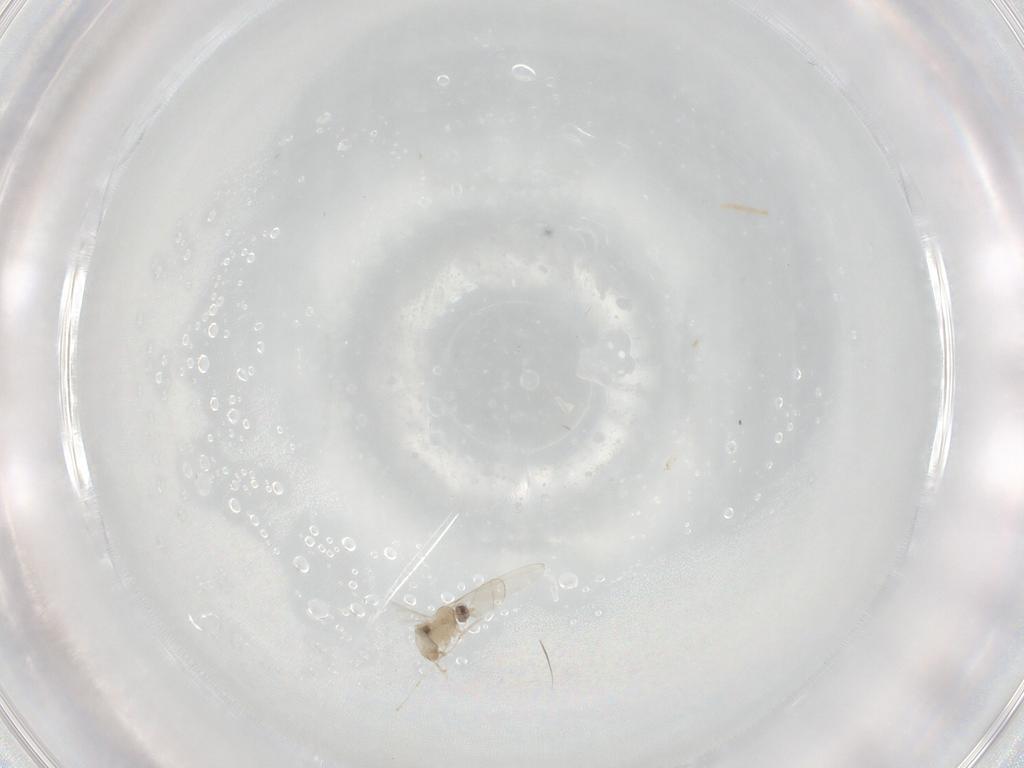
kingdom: Animalia
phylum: Arthropoda
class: Insecta
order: Diptera
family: Cecidomyiidae
